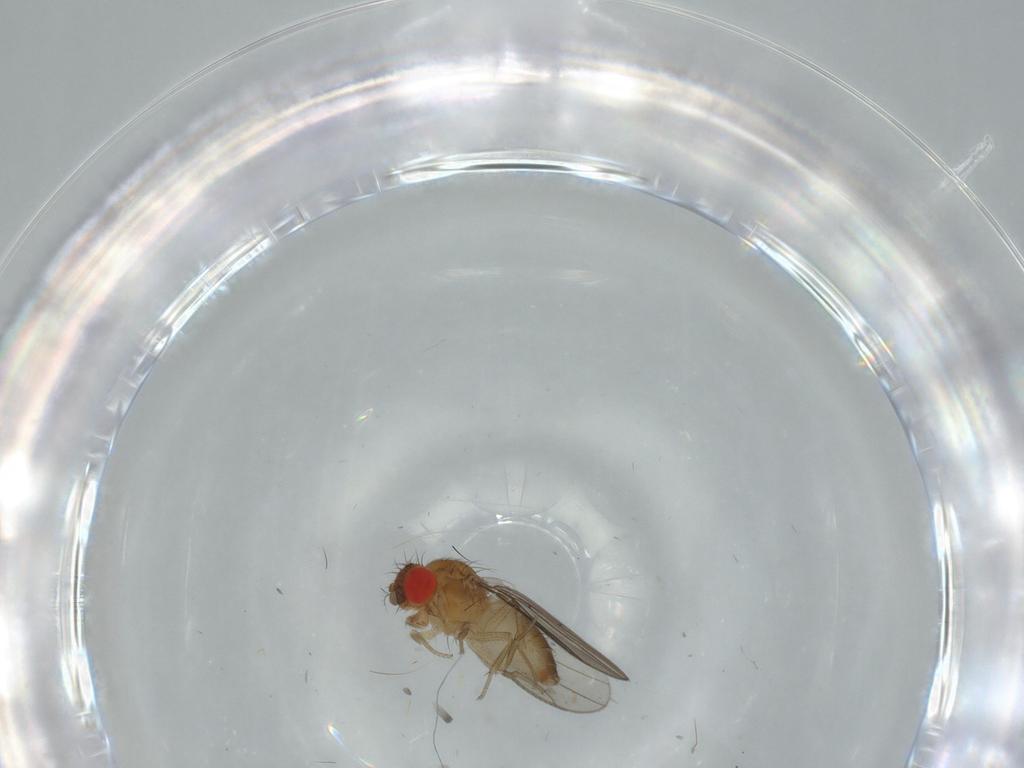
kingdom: Animalia
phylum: Arthropoda
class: Insecta
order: Diptera
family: Drosophilidae
